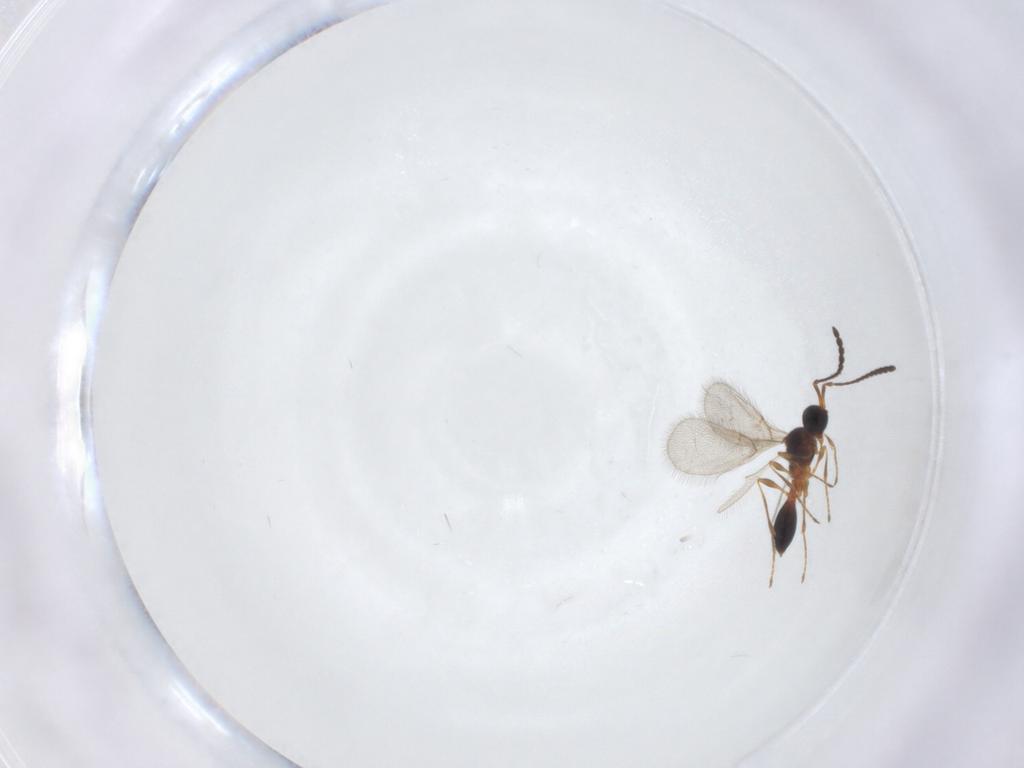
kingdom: Animalia
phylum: Arthropoda
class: Insecta
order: Hymenoptera
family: Diapriidae
